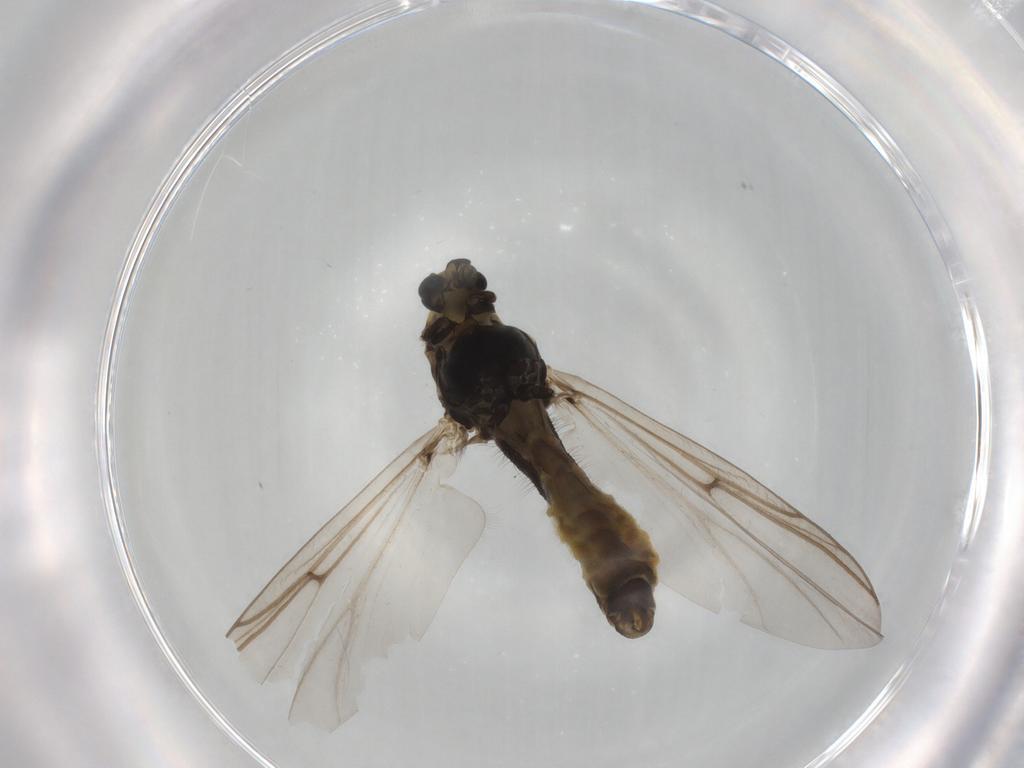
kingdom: Animalia
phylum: Arthropoda
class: Insecta
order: Diptera
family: Chironomidae
